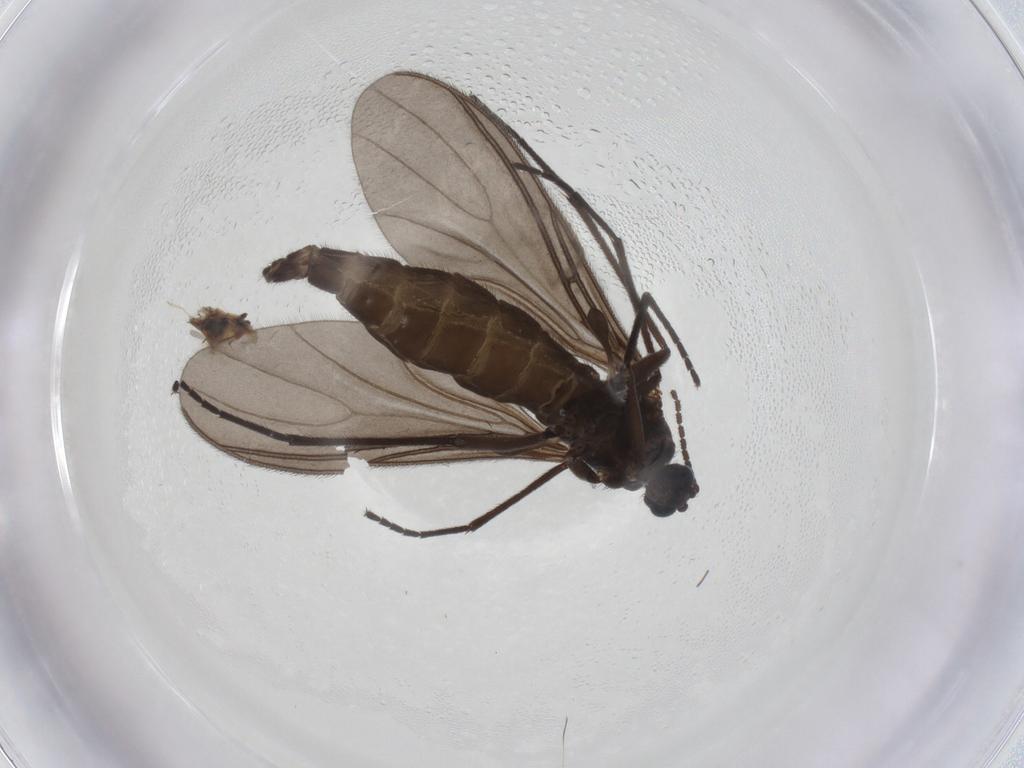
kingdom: Animalia
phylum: Arthropoda
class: Insecta
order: Diptera
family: Sciaridae
